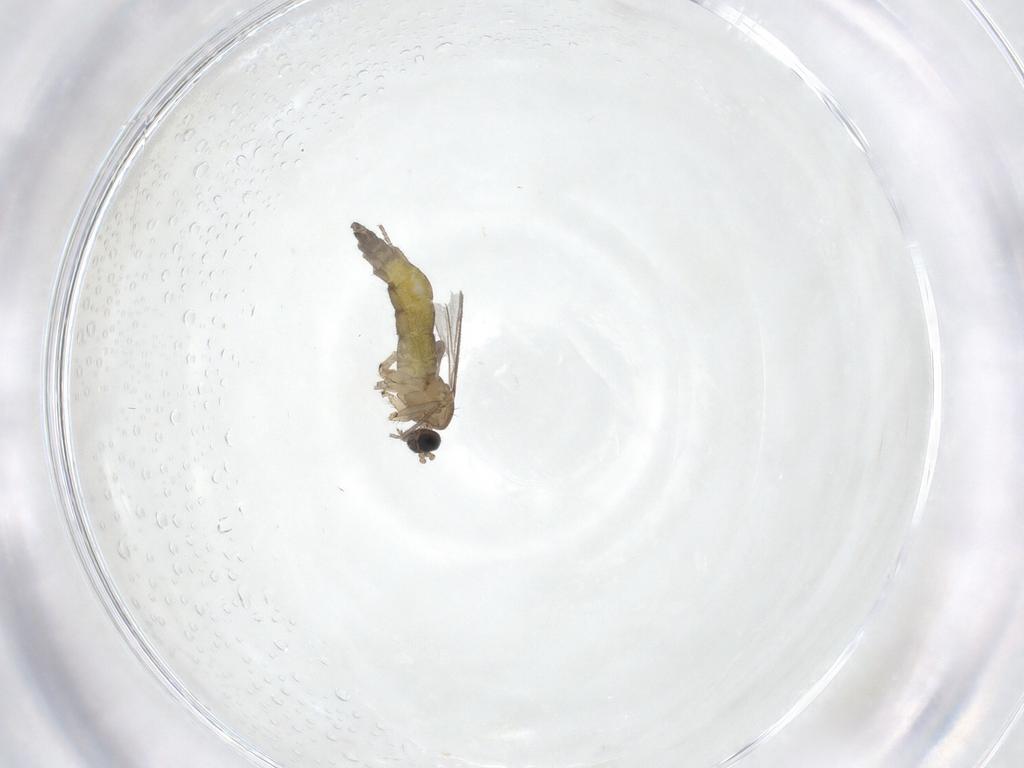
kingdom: Animalia
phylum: Arthropoda
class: Insecta
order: Diptera
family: Sciaridae
